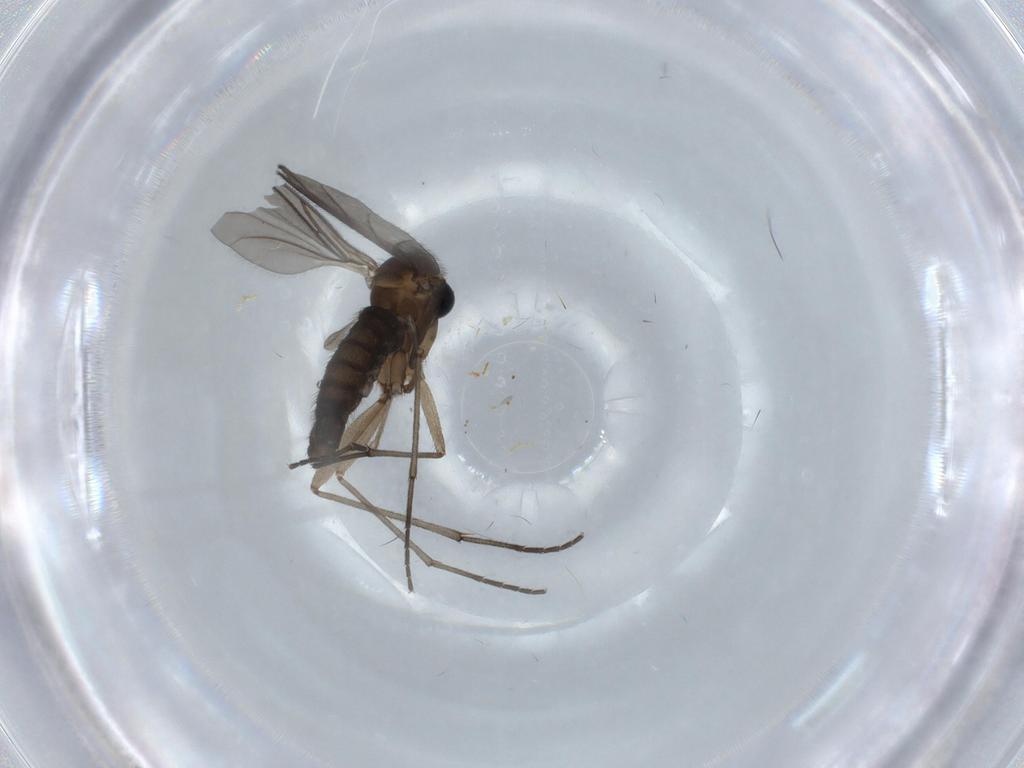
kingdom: Animalia
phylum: Arthropoda
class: Insecta
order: Diptera
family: Sciaridae
